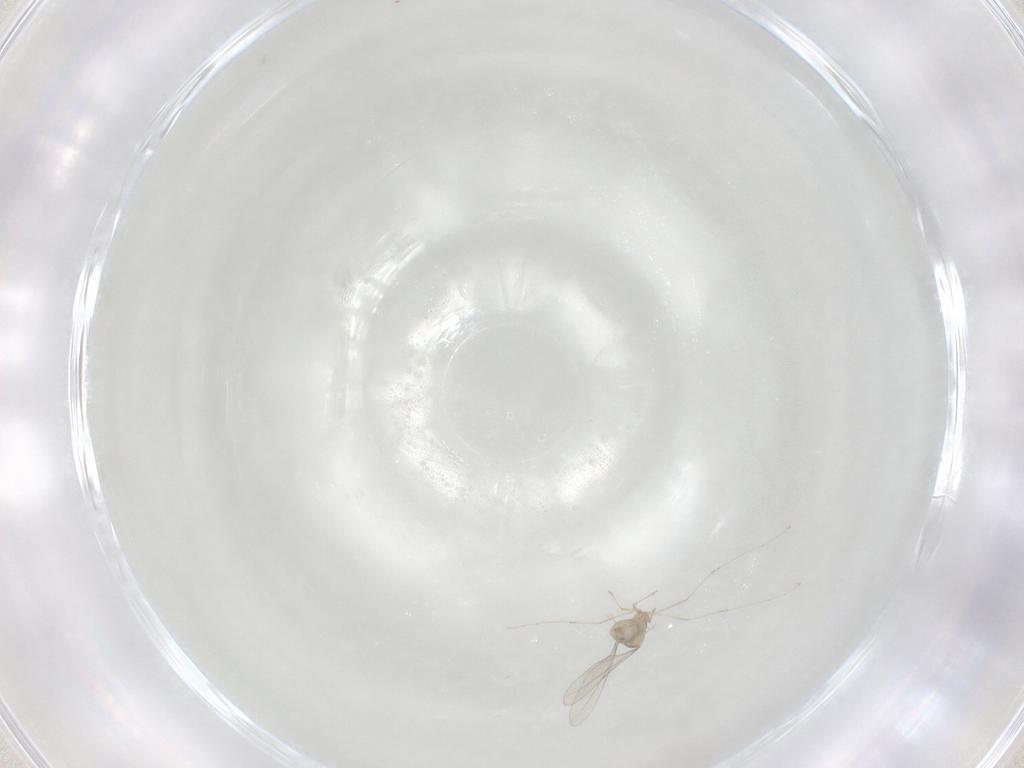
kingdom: Animalia
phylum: Arthropoda
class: Insecta
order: Diptera
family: Cecidomyiidae
